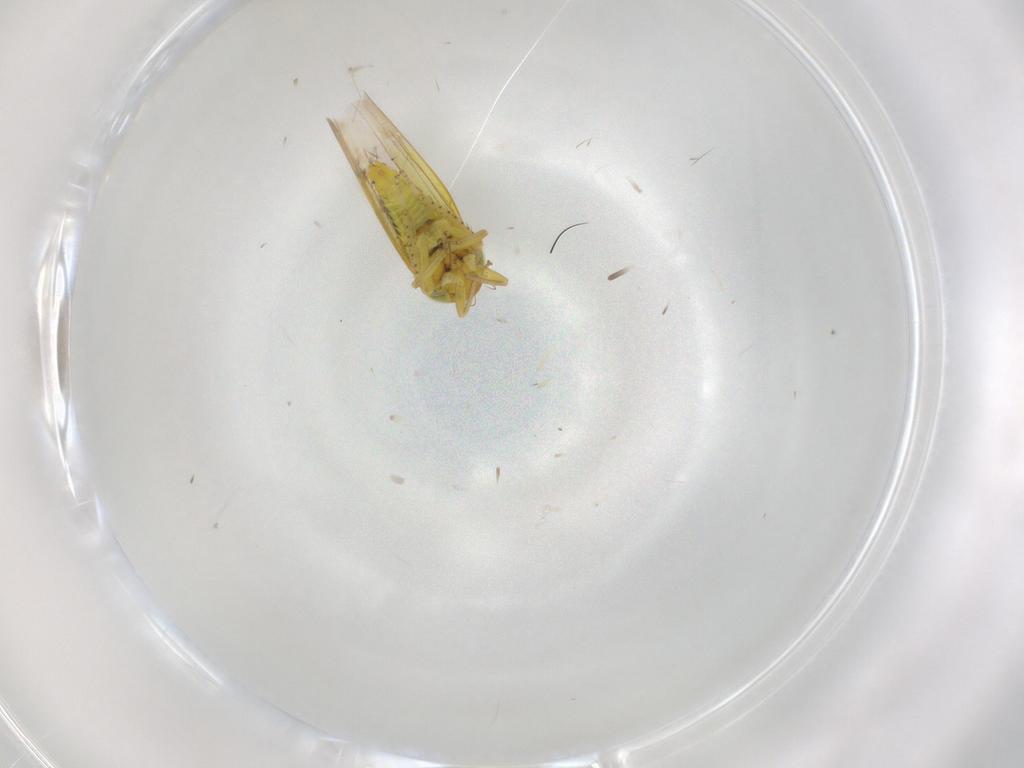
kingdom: Animalia
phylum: Arthropoda
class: Insecta
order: Hemiptera
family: Cicadellidae
